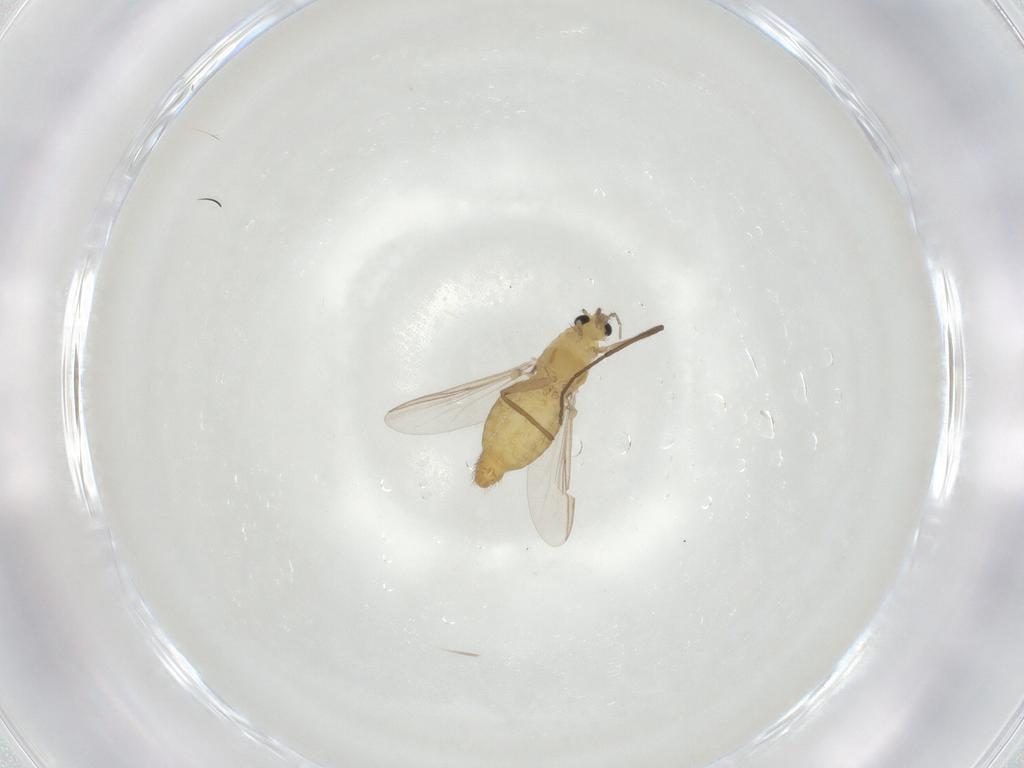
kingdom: Animalia
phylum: Arthropoda
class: Insecta
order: Diptera
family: Chironomidae
